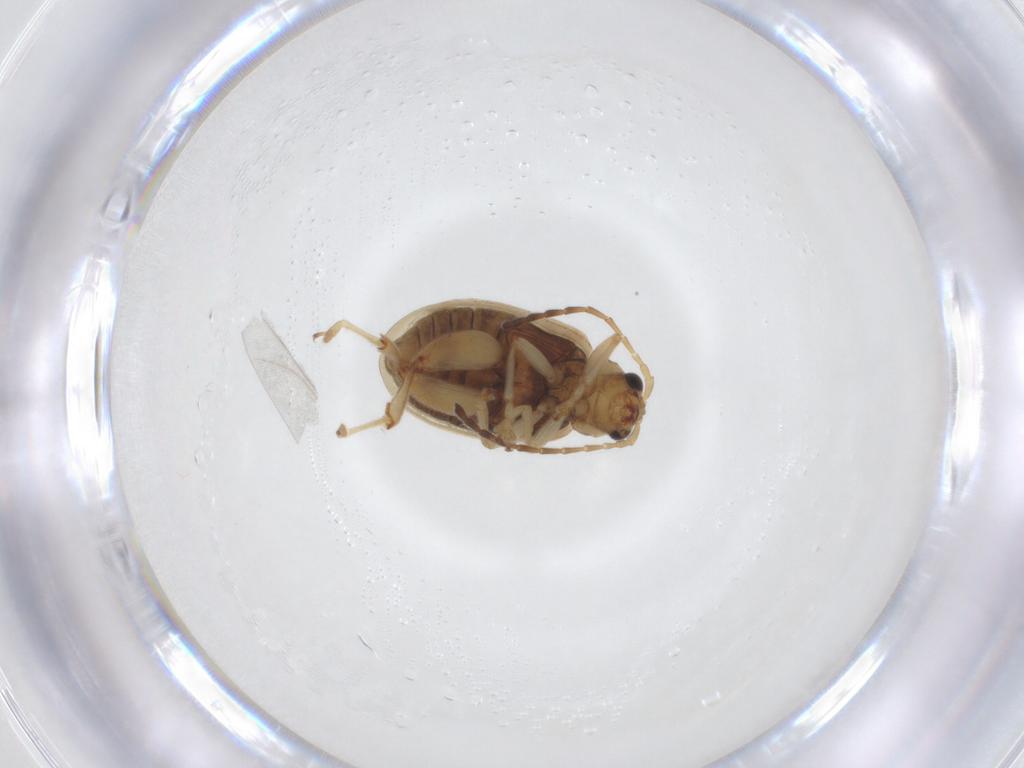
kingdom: Animalia
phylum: Arthropoda
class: Insecta
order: Coleoptera
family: Chrysomelidae
